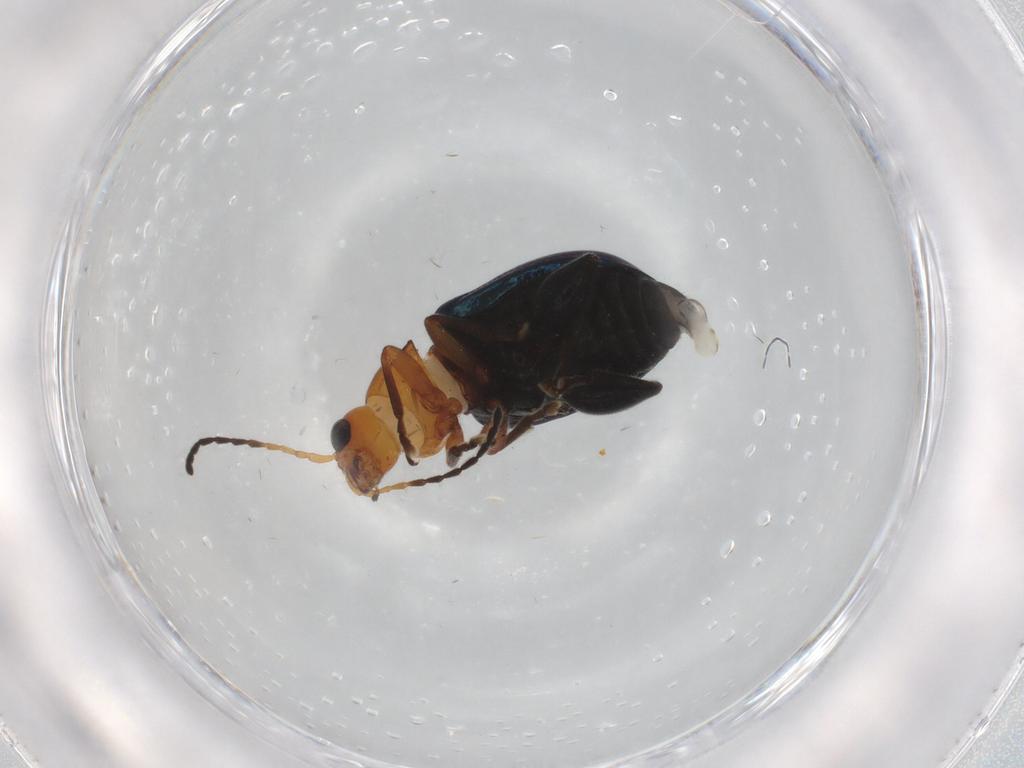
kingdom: Animalia
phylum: Arthropoda
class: Insecta
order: Coleoptera
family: Chrysomelidae
